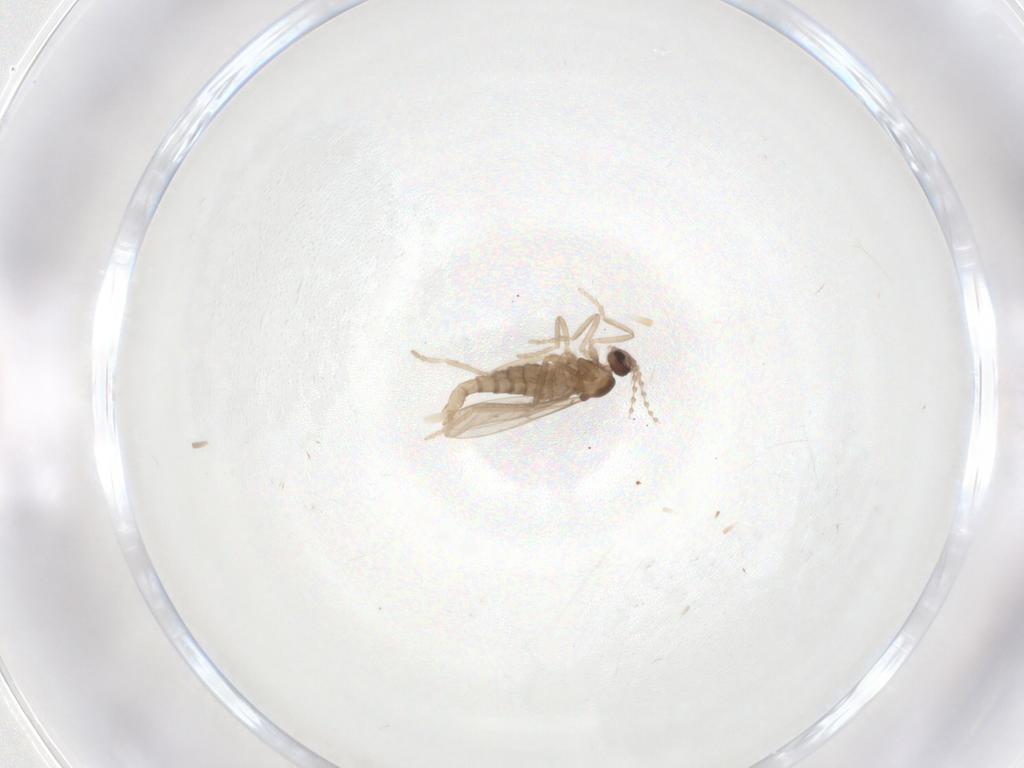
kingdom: Animalia
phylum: Arthropoda
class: Insecta
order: Diptera
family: Cecidomyiidae
